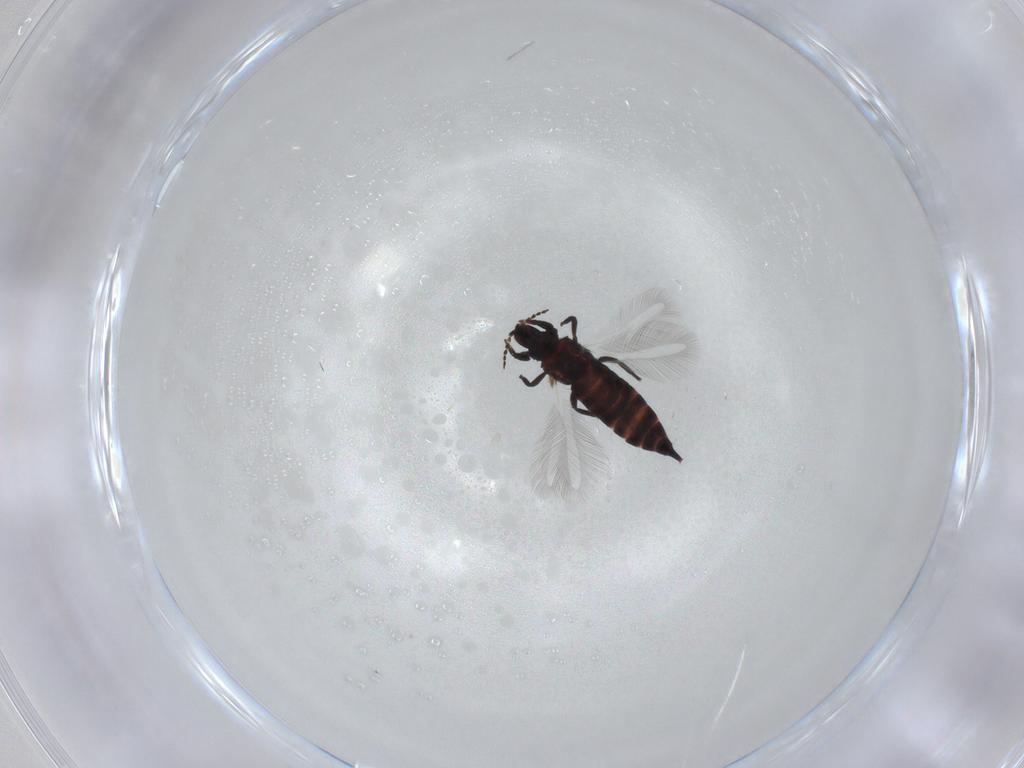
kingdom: Animalia
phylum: Arthropoda
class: Insecta
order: Thysanoptera
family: Phlaeothripidae
